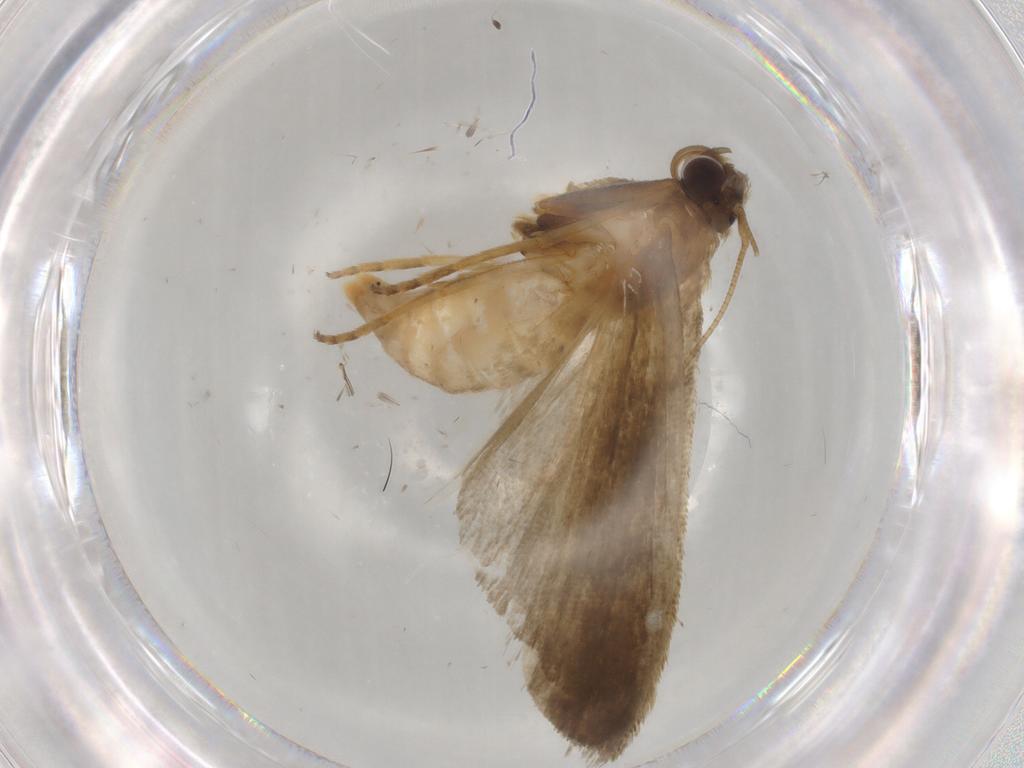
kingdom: Animalia
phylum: Arthropoda
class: Insecta
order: Lepidoptera
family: Noctuidae
